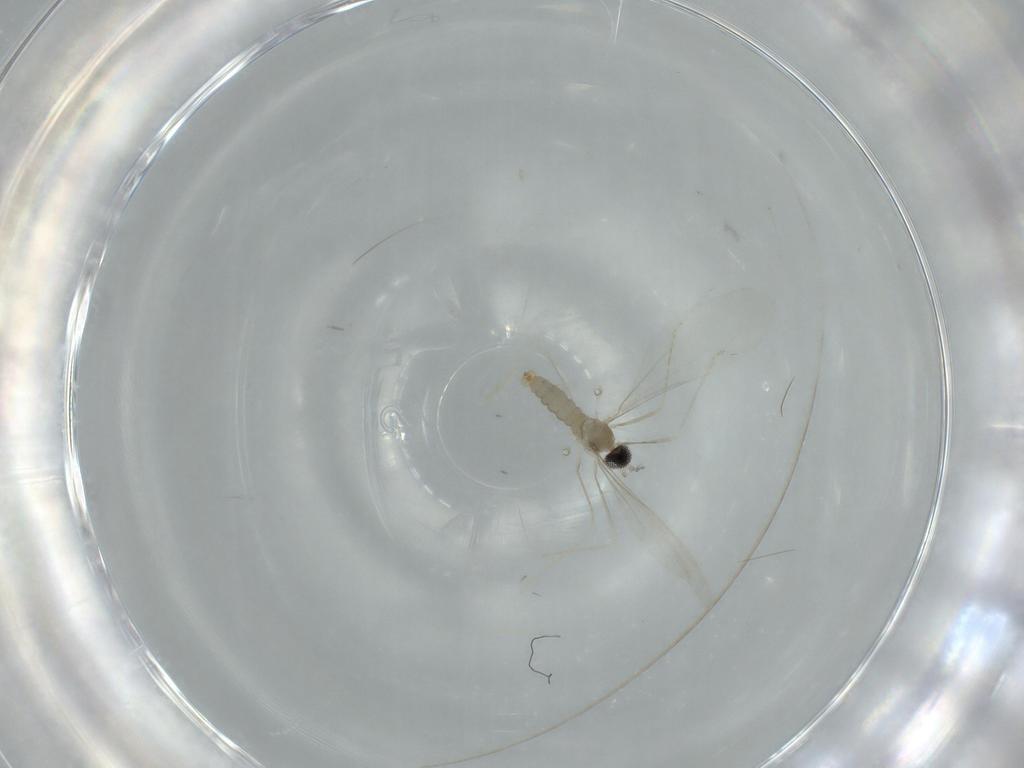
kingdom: Animalia
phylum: Arthropoda
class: Insecta
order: Diptera
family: Cecidomyiidae
